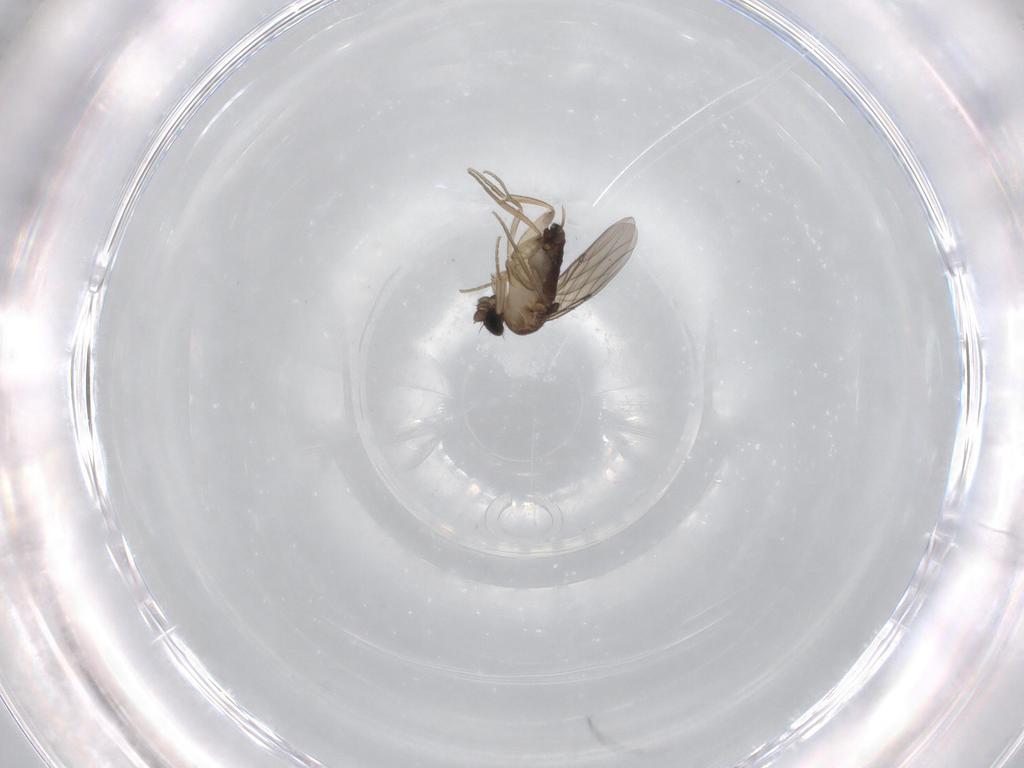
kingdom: Animalia
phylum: Arthropoda
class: Insecta
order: Diptera
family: Phoridae
